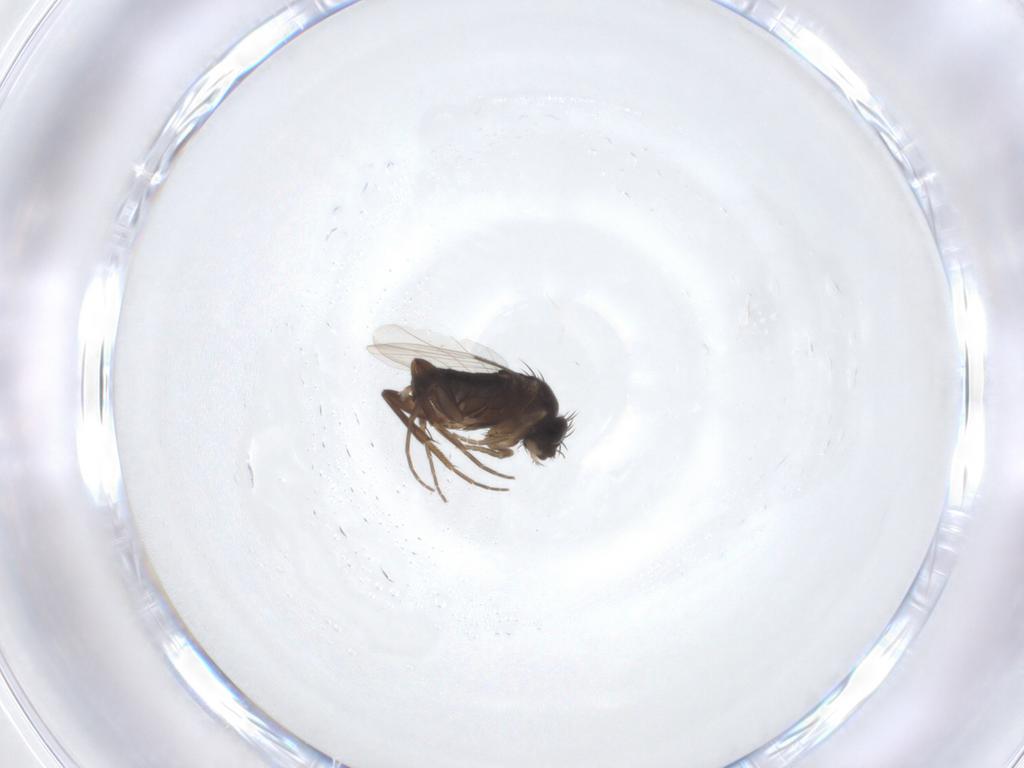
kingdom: Animalia
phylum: Arthropoda
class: Insecta
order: Diptera
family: Phoridae
